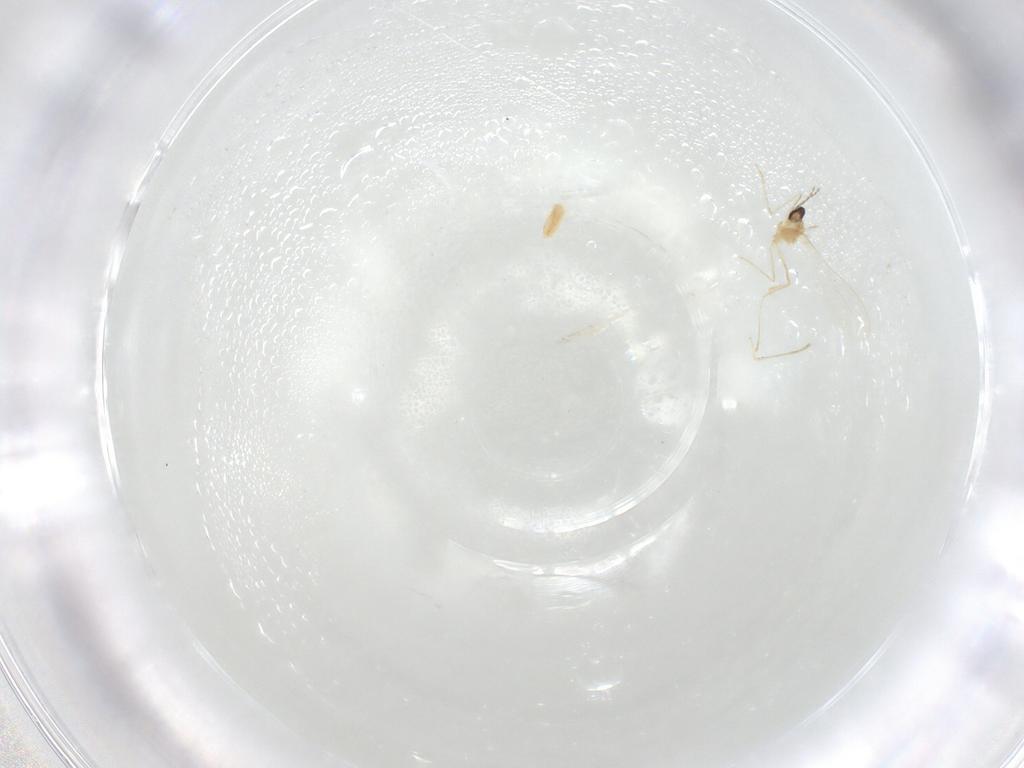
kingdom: Animalia
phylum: Arthropoda
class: Insecta
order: Diptera
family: Cecidomyiidae
